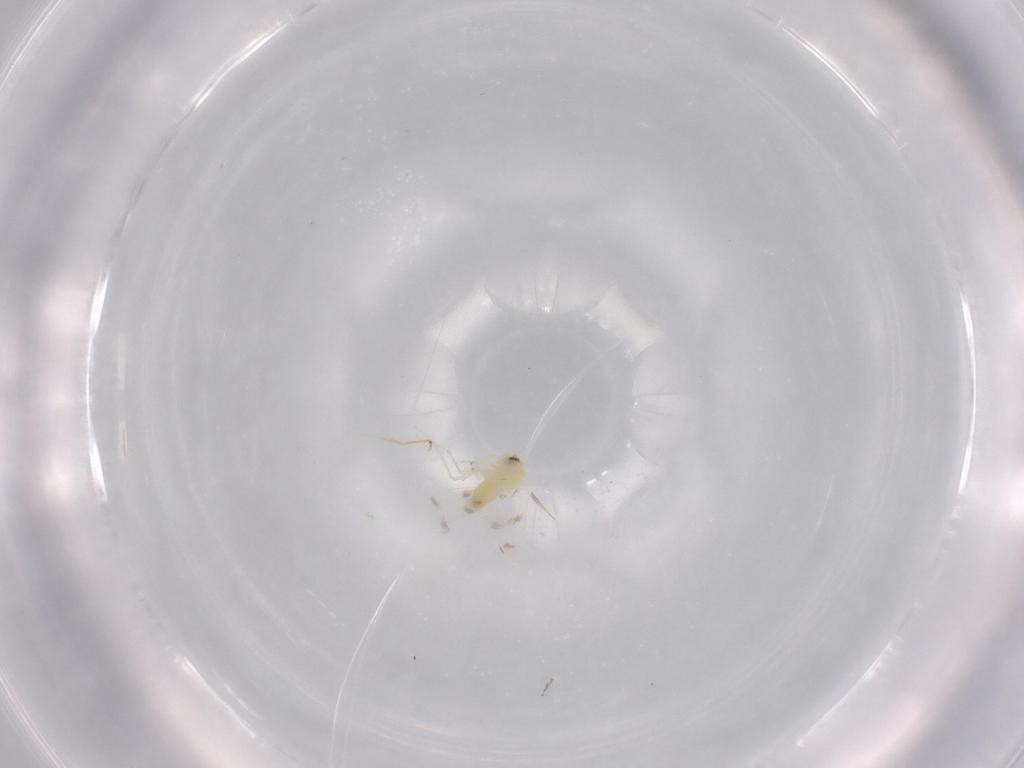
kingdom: Animalia
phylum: Arthropoda
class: Insecta
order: Hemiptera
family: Aleyrodidae
